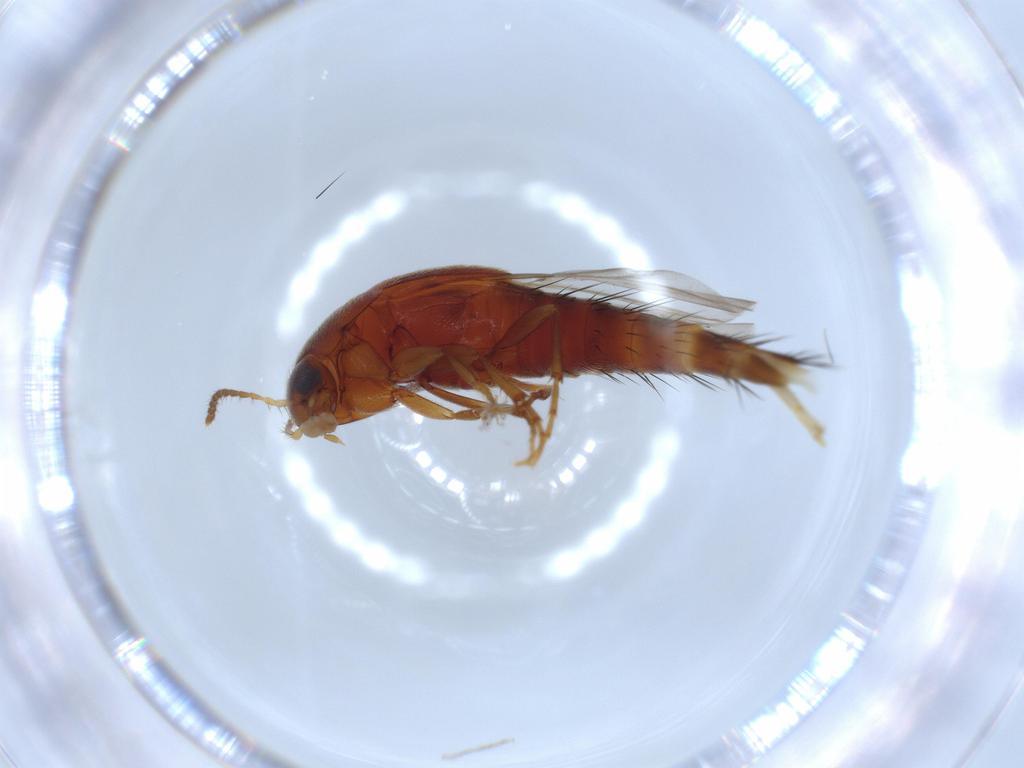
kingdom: Animalia
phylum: Arthropoda
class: Insecta
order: Coleoptera
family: Staphylinidae
